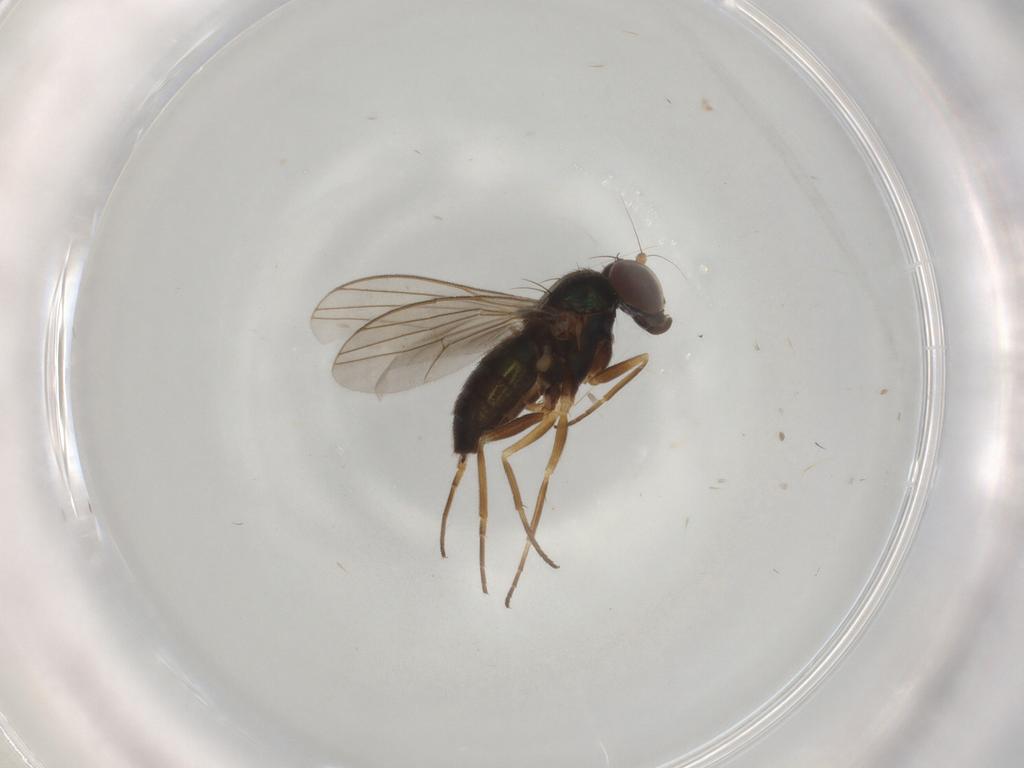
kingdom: Animalia
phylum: Arthropoda
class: Insecta
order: Diptera
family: Dolichopodidae
